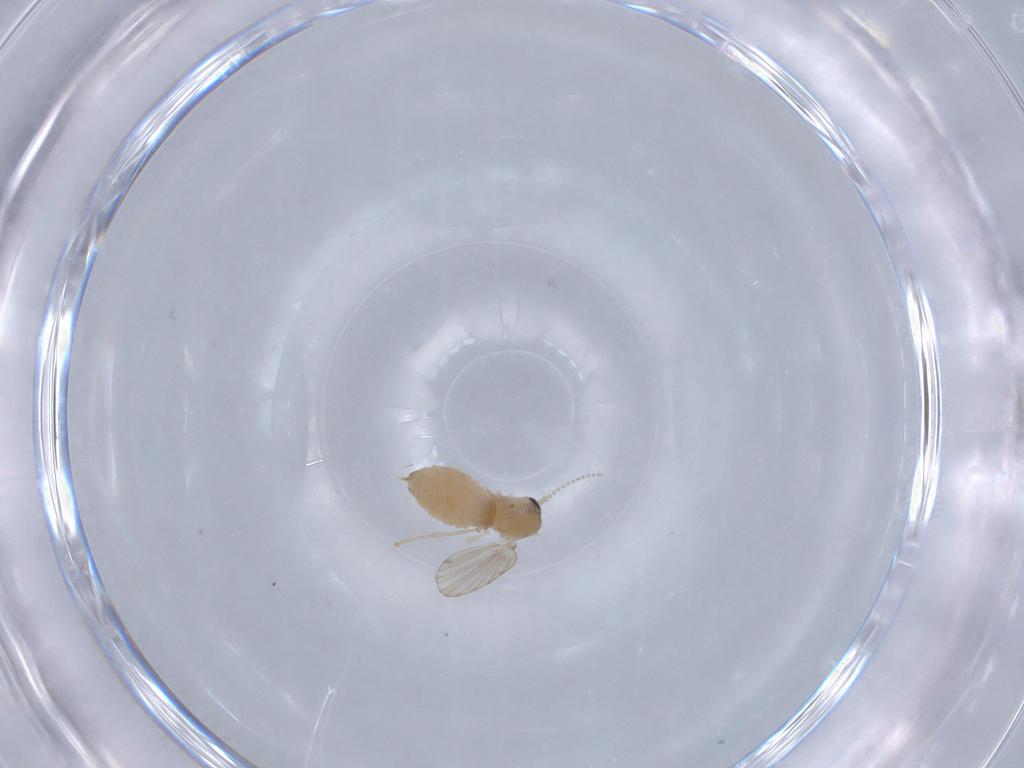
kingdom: Animalia
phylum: Arthropoda
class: Insecta
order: Diptera
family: Psychodidae
